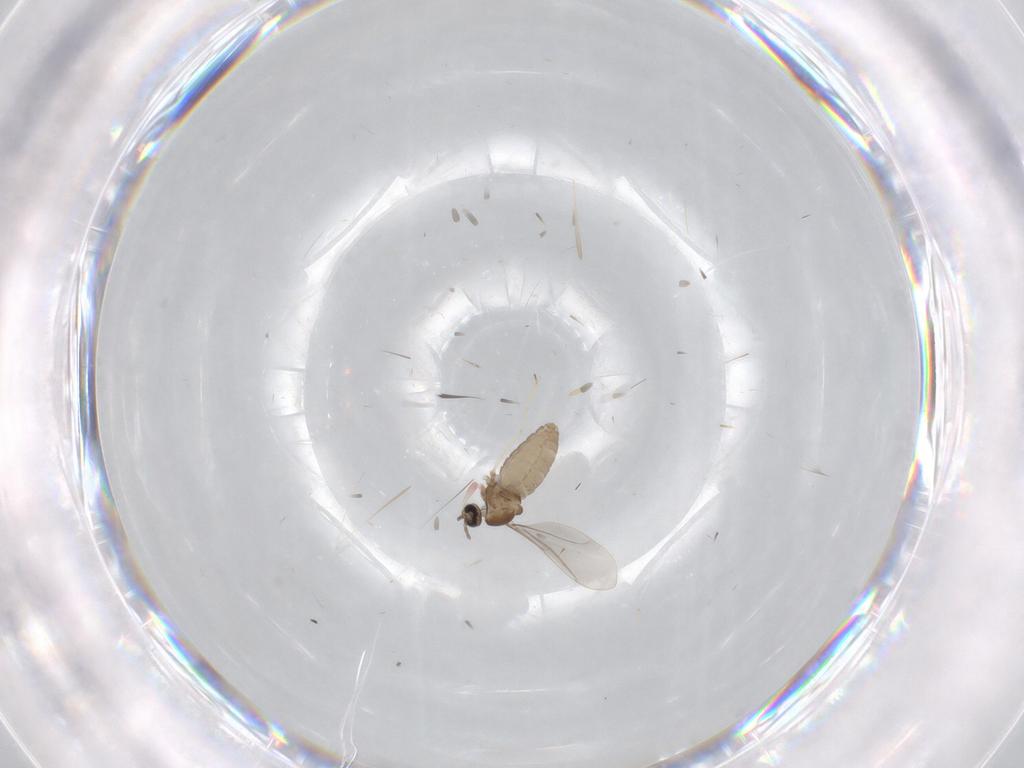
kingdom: Animalia
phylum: Arthropoda
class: Insecta
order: Diptera
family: Cecidomyiidae
